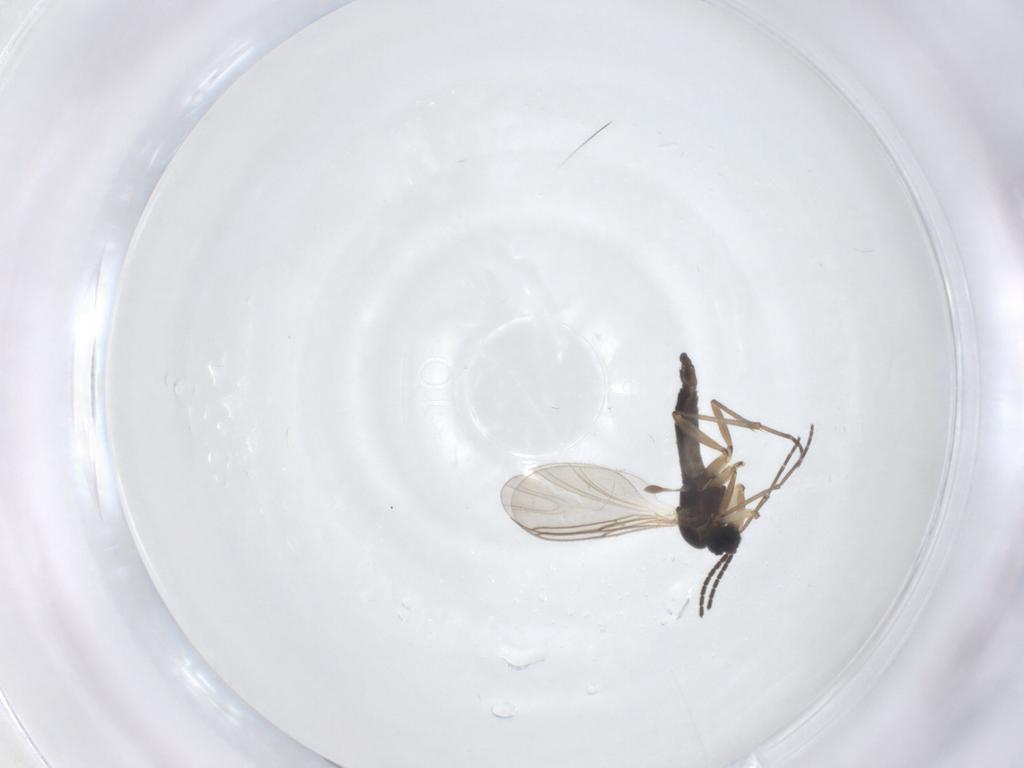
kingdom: Animalia
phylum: Arthropoda
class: Insecta
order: Diptera
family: Sciaridae
